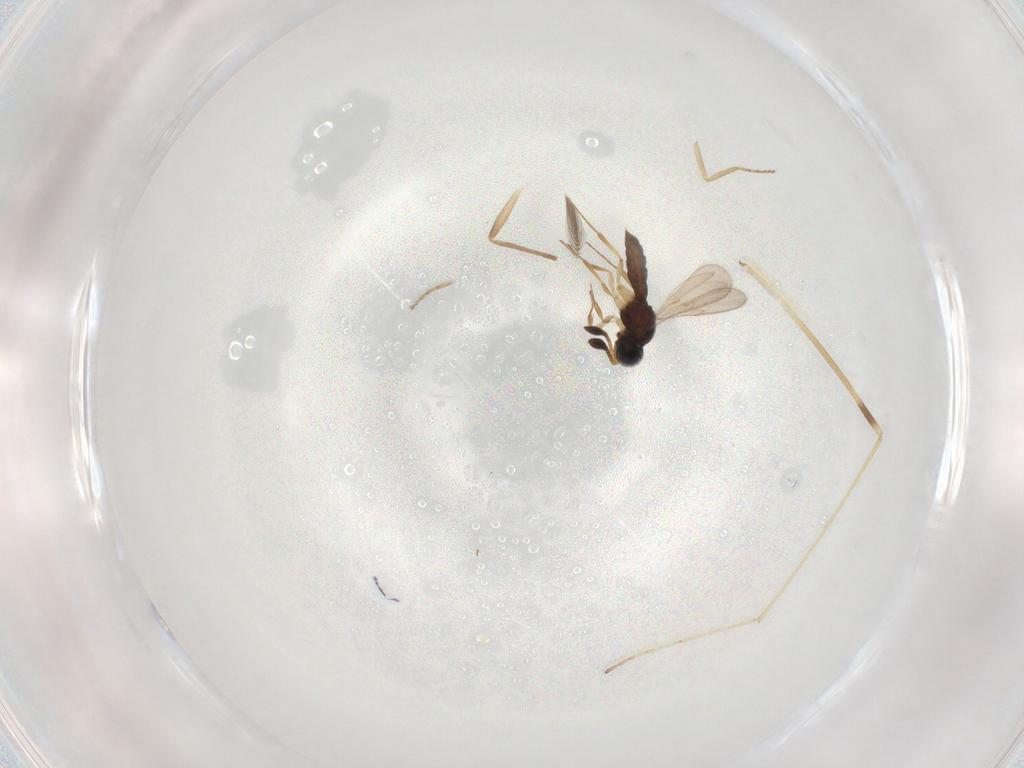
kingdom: Animalia
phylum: Arthropoda
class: Insecta
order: Hymenoptera
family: Scelionidae
